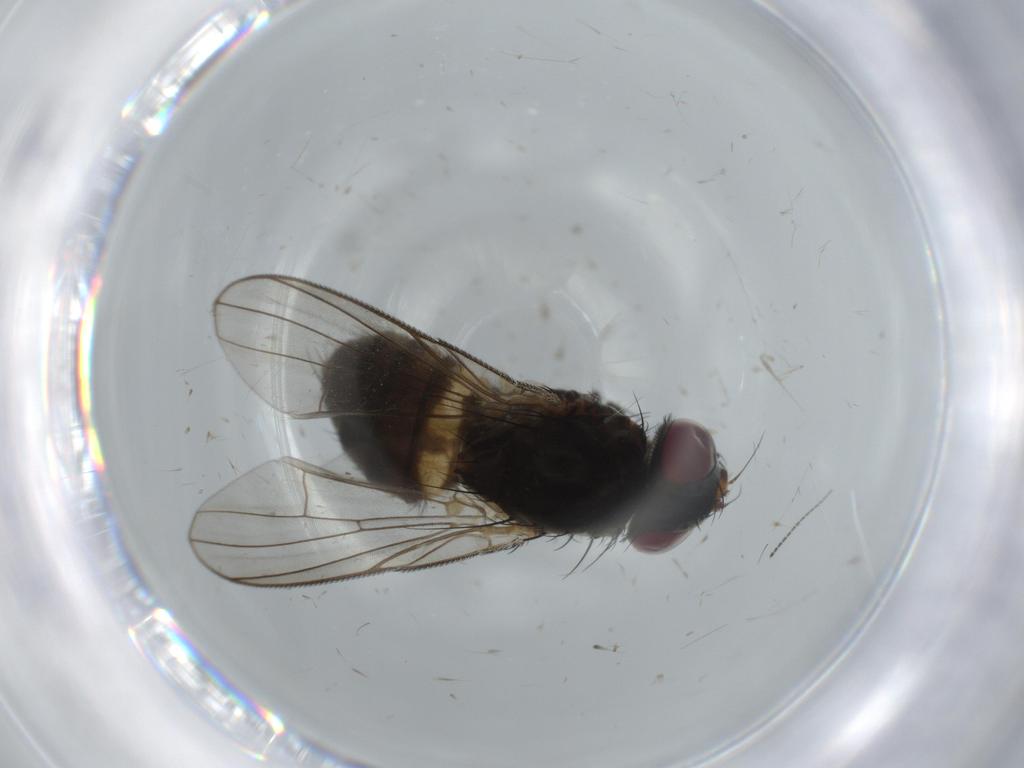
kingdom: Animalia
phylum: Arthropoda
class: Insecta
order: Diptera
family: Fannia
